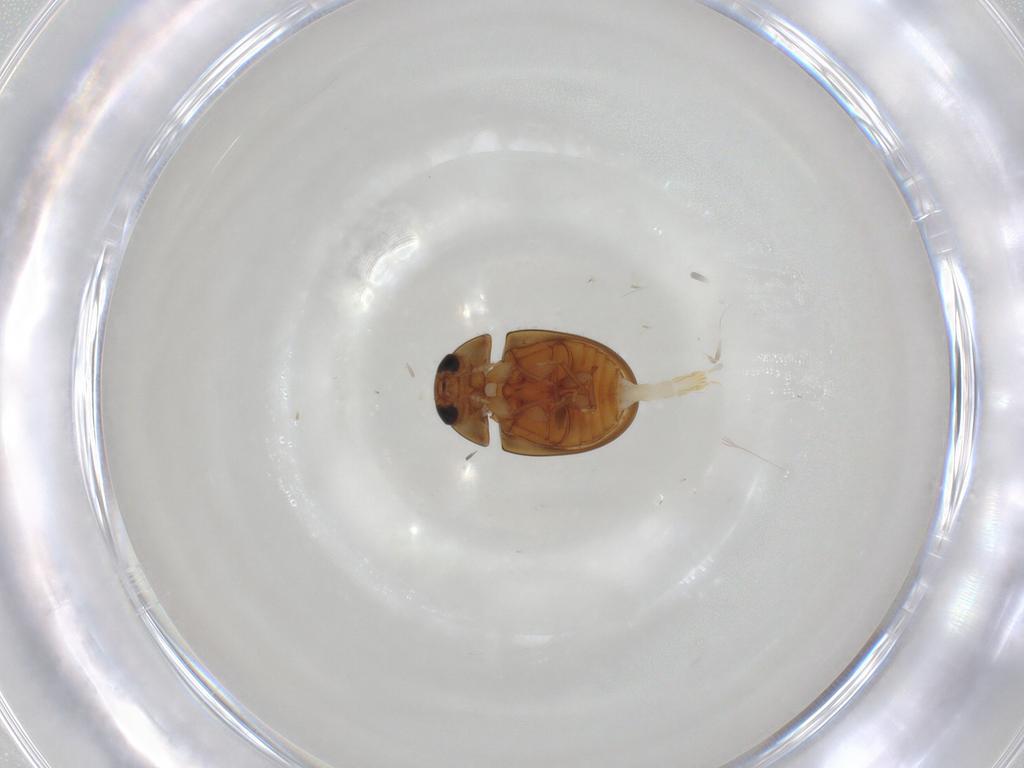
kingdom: Animalia
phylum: Arthropoda
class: Insecta
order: Coleoptera
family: Phalacridae
